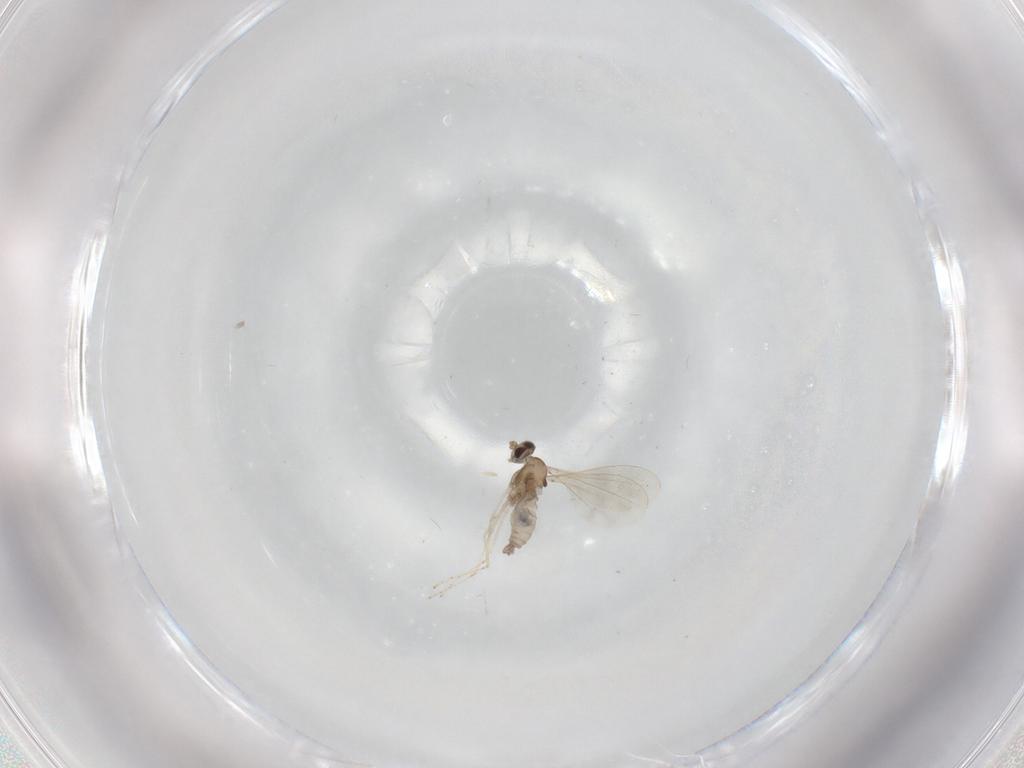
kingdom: Animalia
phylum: Arthropoda
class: Insecta
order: Diptera
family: Cecidomyiidae
